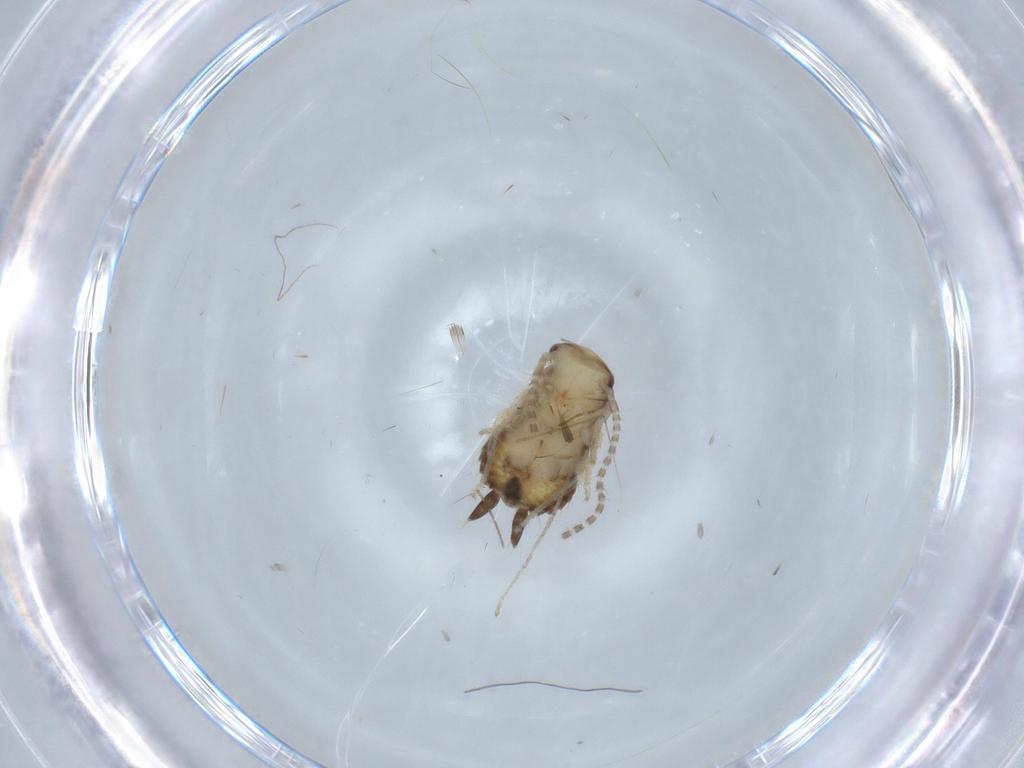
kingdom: Animalia
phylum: Arthropoda
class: Insecta
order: Blattodea
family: Ectobiidae
